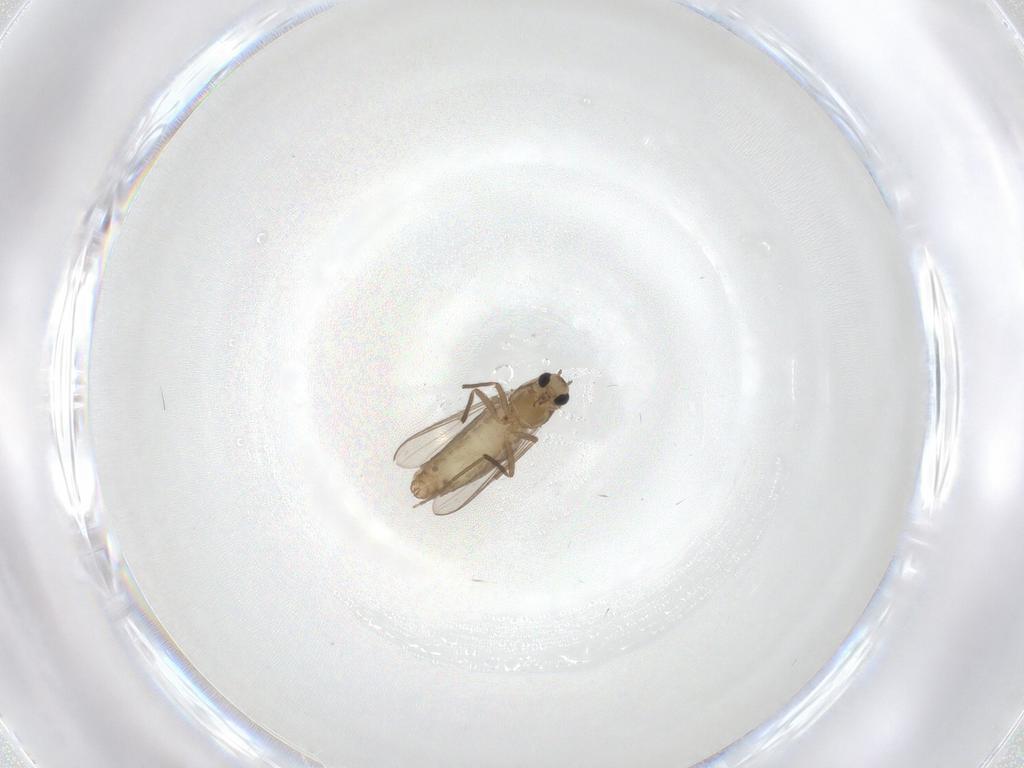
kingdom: Animalia
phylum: Arthropoda
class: Insecta
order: Diptera
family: Chironomidae
